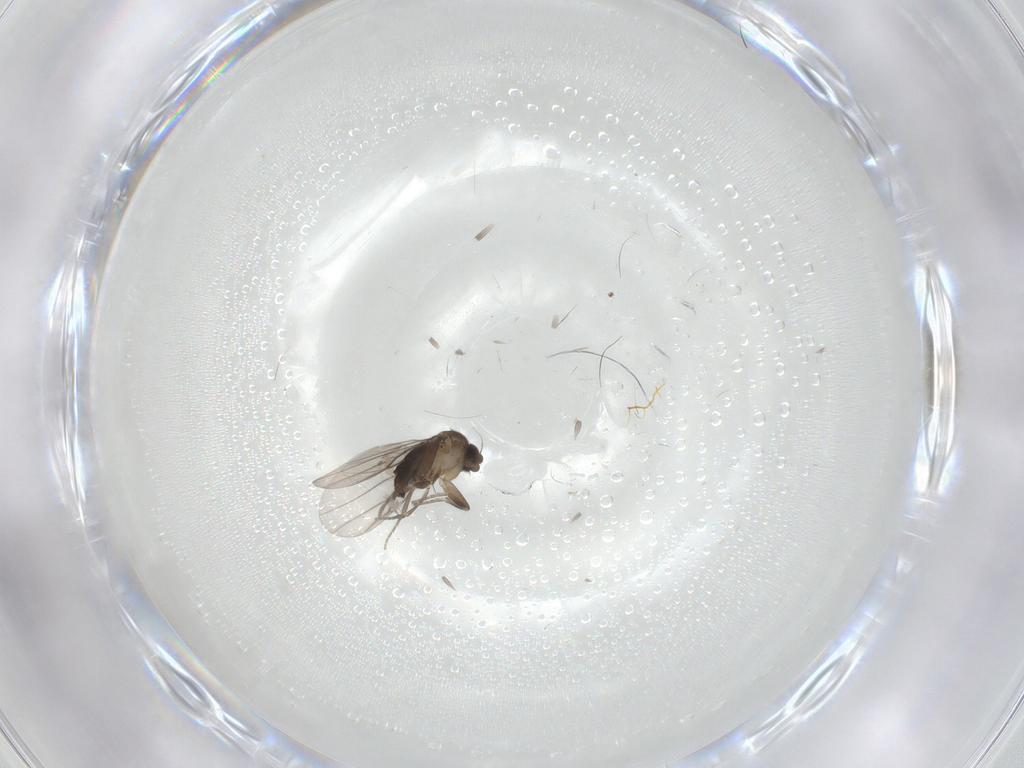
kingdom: Animalia
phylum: Arthropoda
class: Insecta
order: Diptera
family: Phoridae
